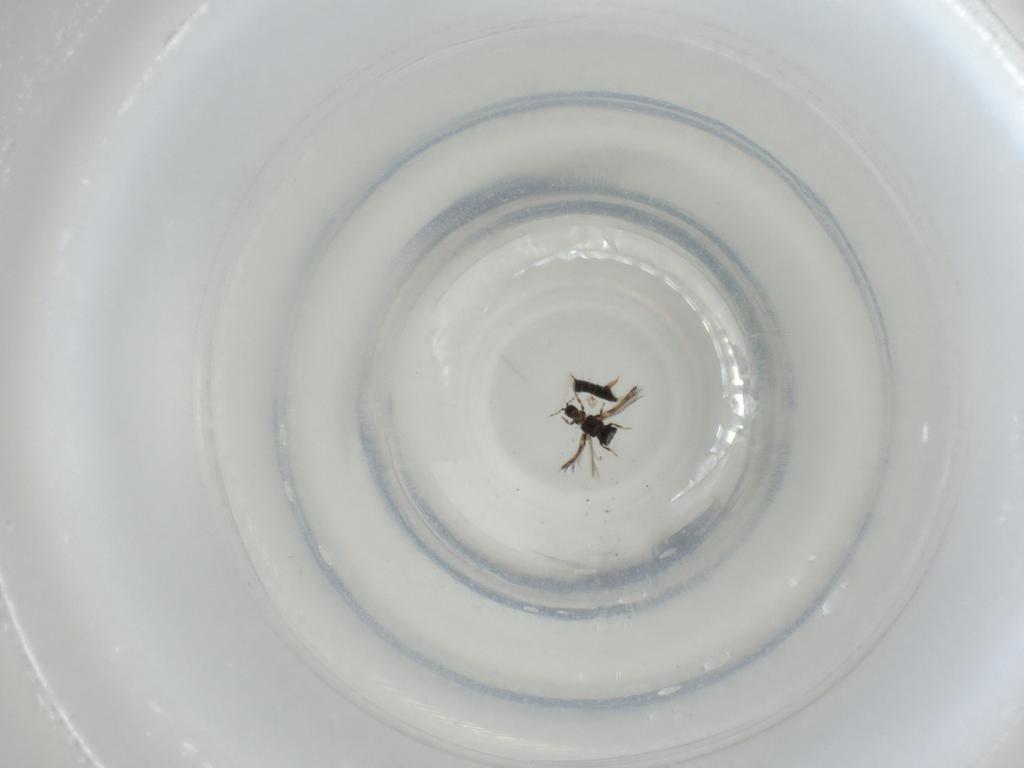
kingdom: Animalia
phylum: Arthropoda
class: Insecta
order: Thysanoptera
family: Thripidae
